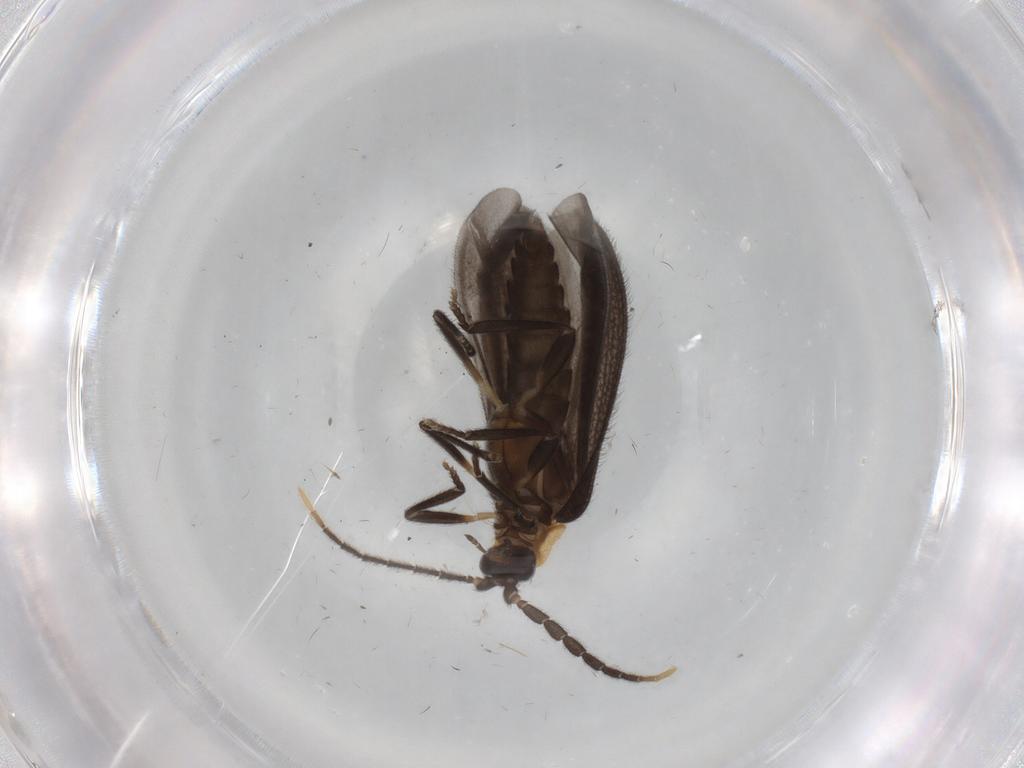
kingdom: Animalia
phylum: Arthropoda
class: Insecta
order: Coleoptera
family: Lycidae
